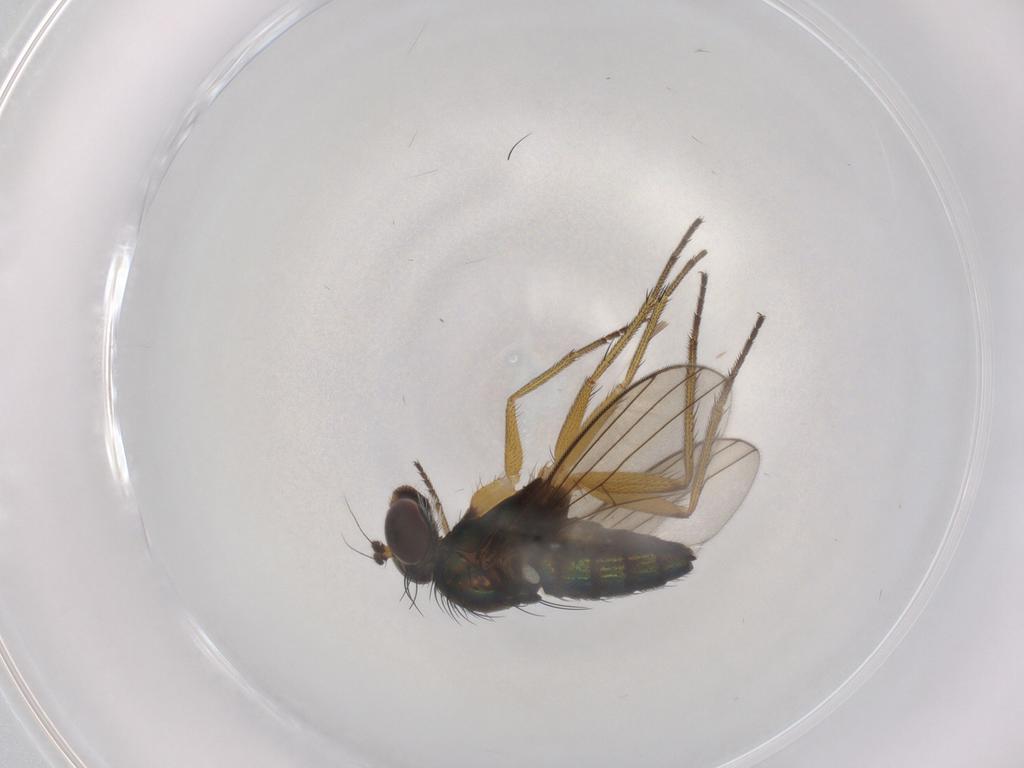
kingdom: Animalia
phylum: Arthropoda
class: Insecta
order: Diptera
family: Dolichopodidae
